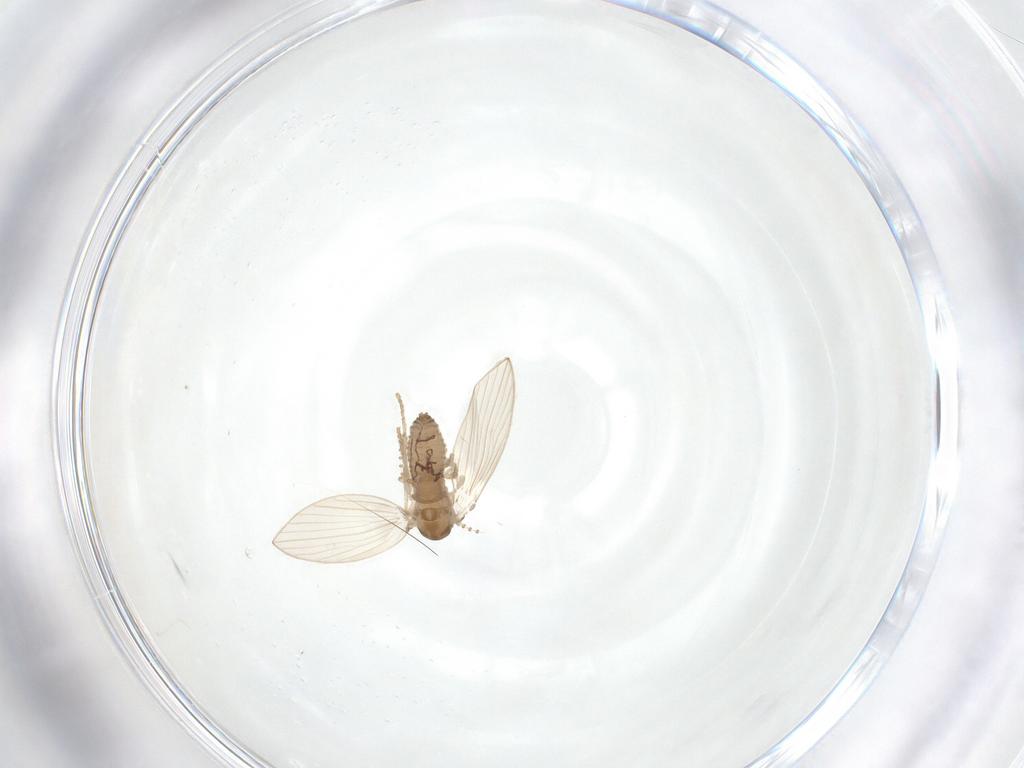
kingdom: Animalia
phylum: Arthropoda
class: Insecta
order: Diptera
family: Psychodidae
